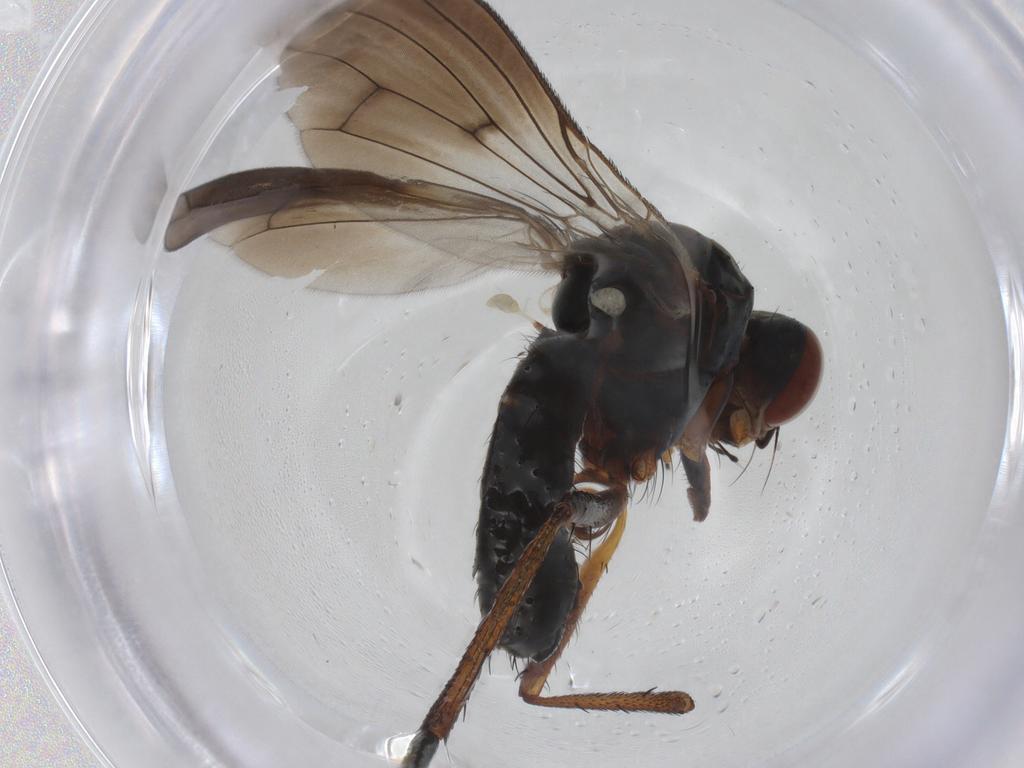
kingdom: Animalia
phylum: Arthropoda
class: Insecta
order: Diptera
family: Anthomyiidae
